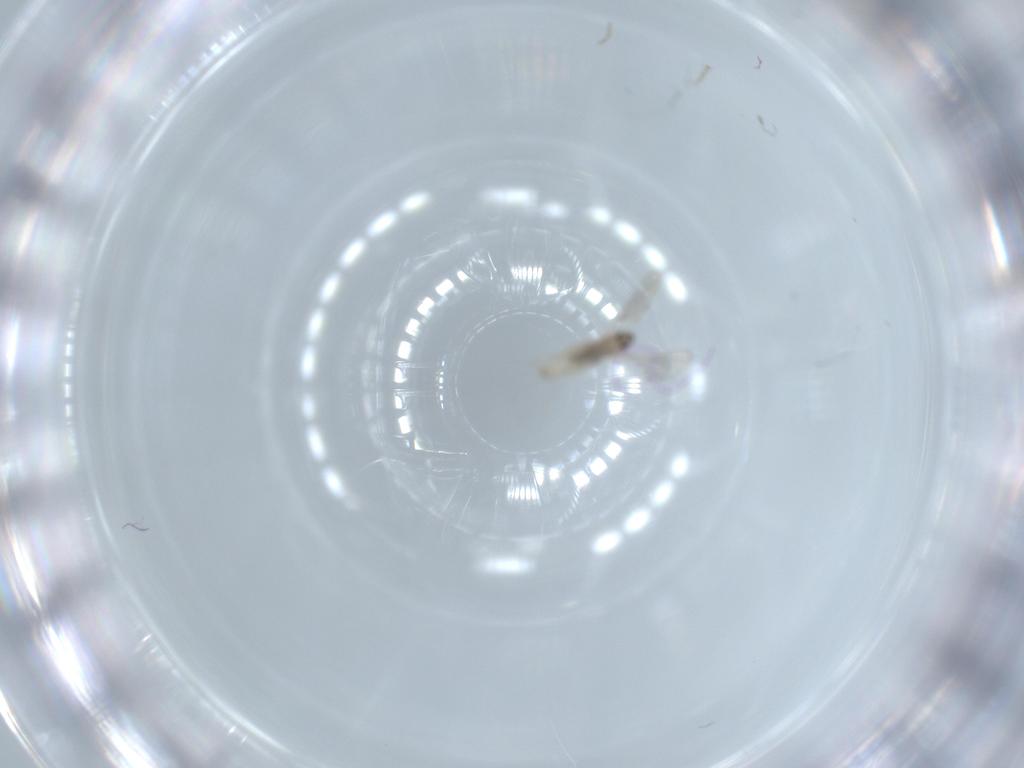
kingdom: Animalia
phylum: Arthropoda
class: Insecta
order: Diptera
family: Cecidomyiidae
